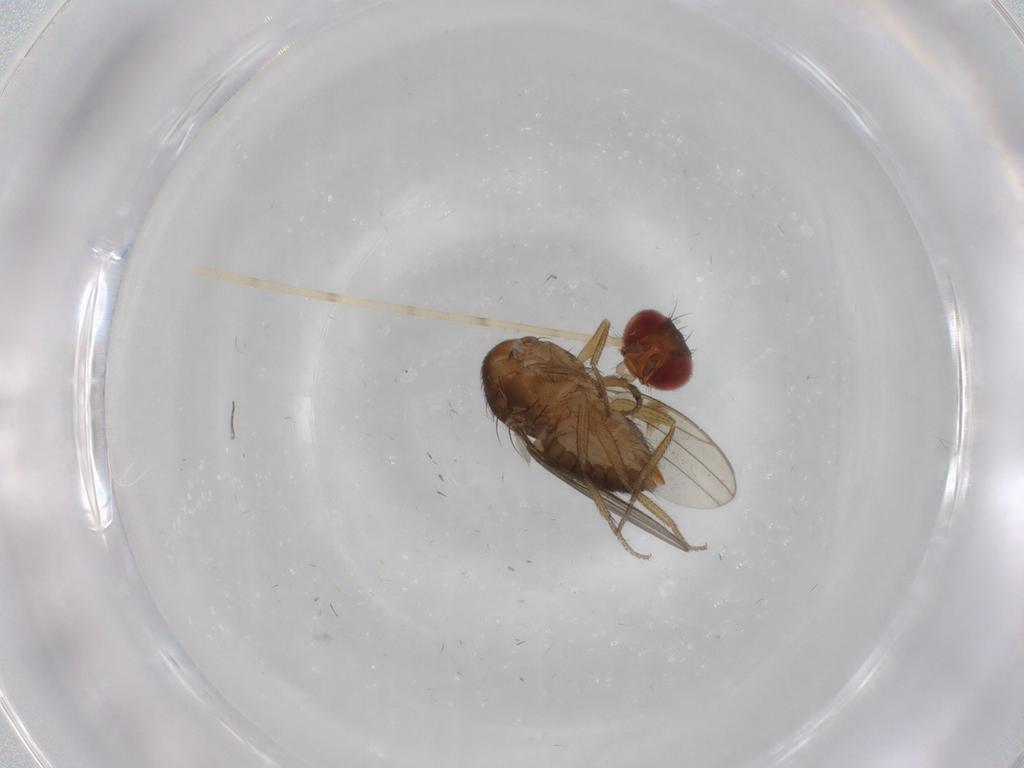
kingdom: Animalia
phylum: Arthropoda
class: Insecta
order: Diptera
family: Drosophilidae
